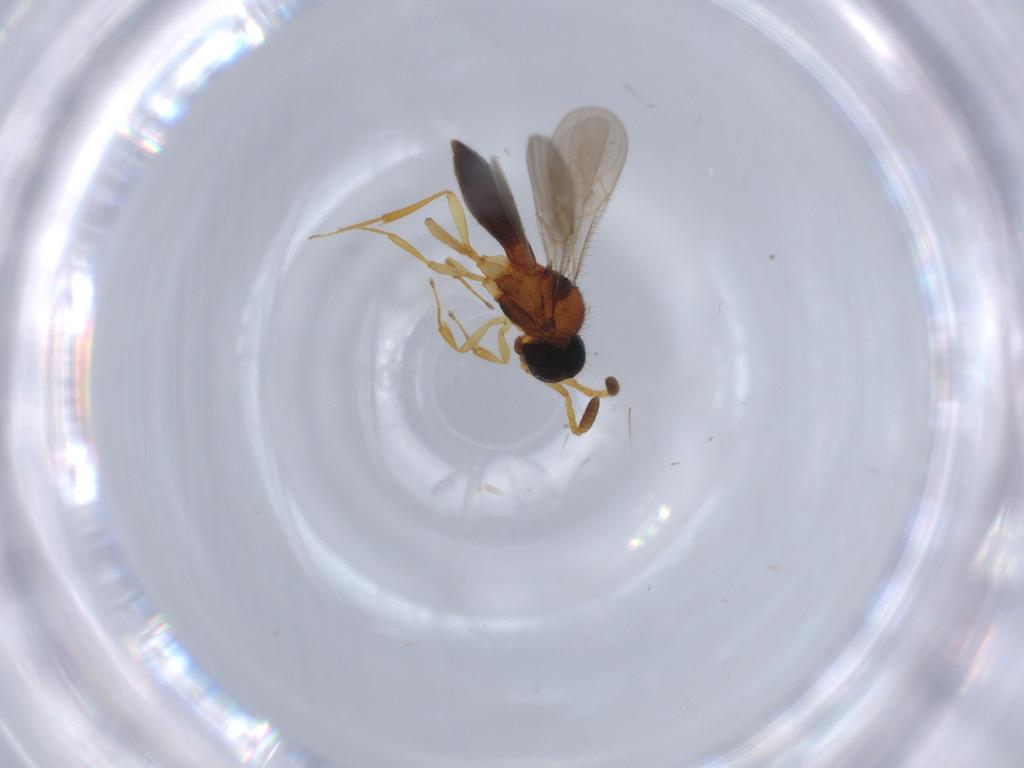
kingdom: Animalia
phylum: Arthropoda
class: Insecta
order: Hymenoptera
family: Scelionidae
